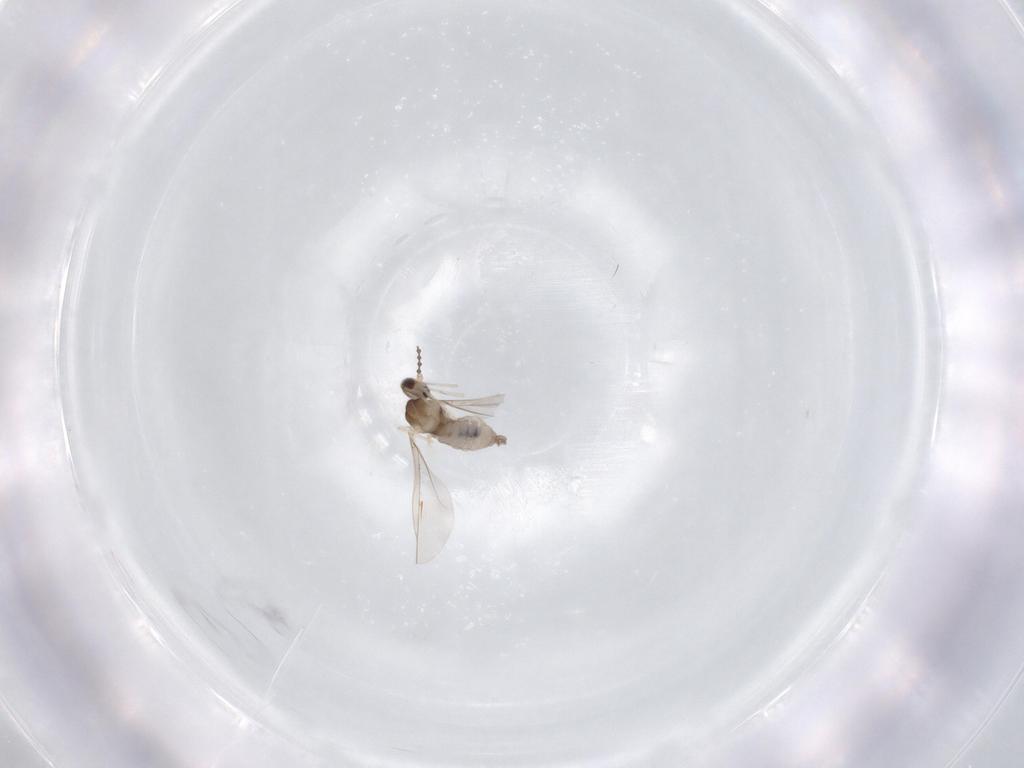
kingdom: Animalia
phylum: Arthropoda
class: Insecta
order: Diptera
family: Cecidomyiidae
